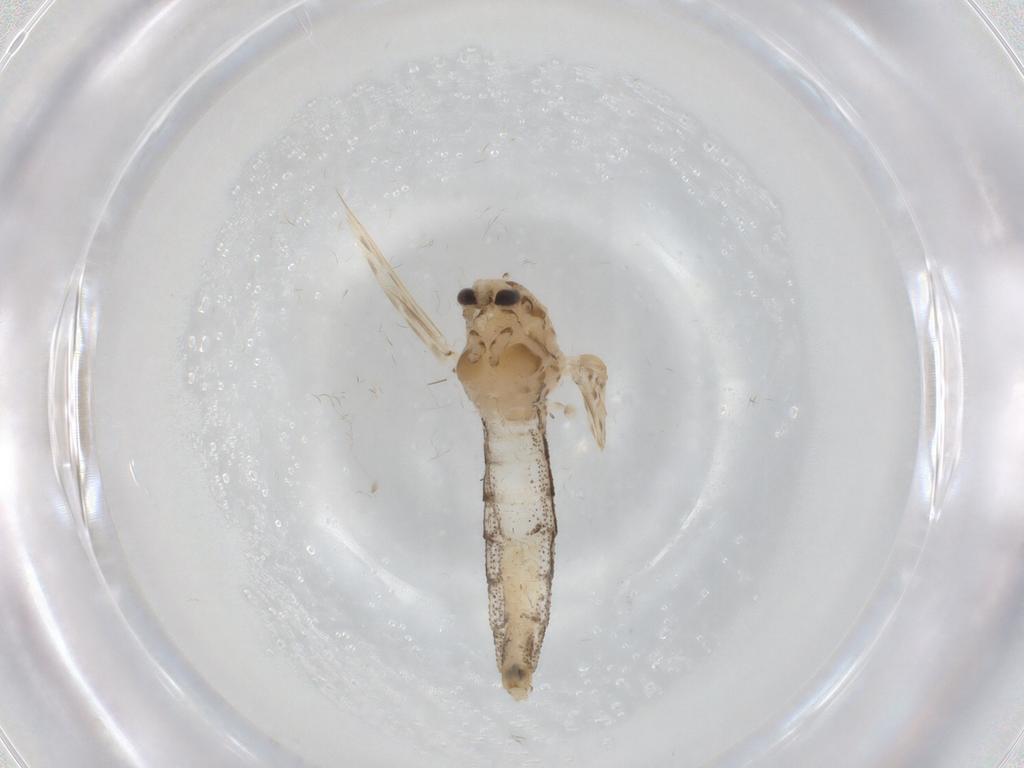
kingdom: Animalia
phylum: Arthropoda
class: Insecta
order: Diptera
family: Chaoboridae
